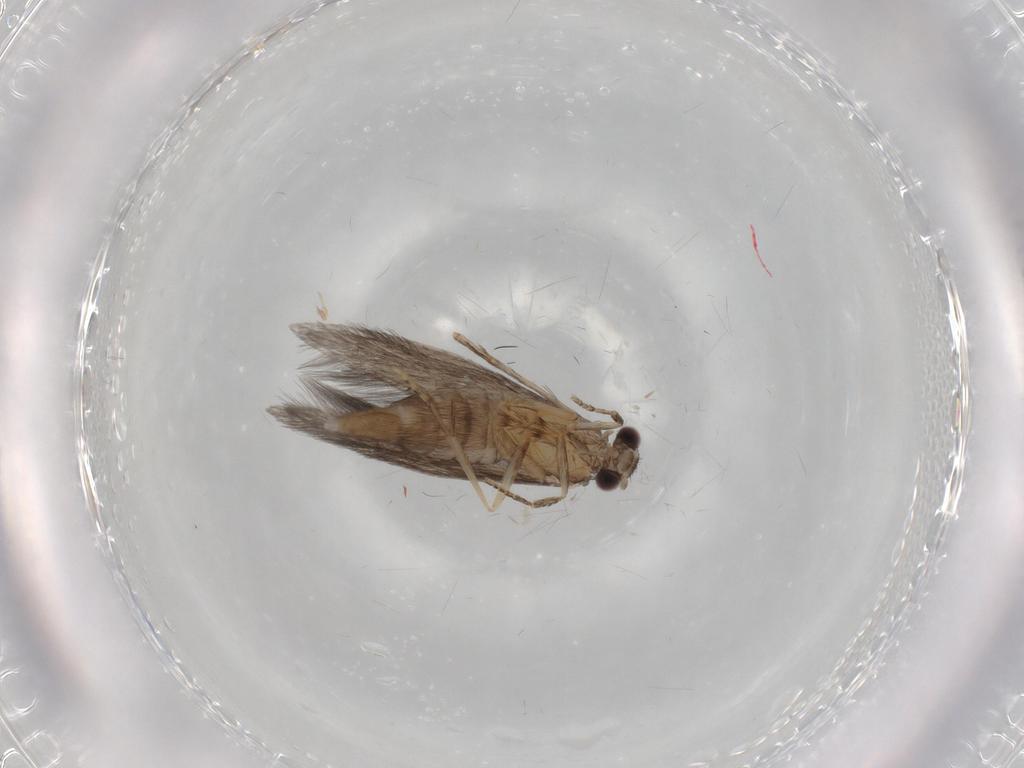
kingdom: Animalia
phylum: Arthropoda
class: Insecta
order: Trichoptera
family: Hydroptilidae
